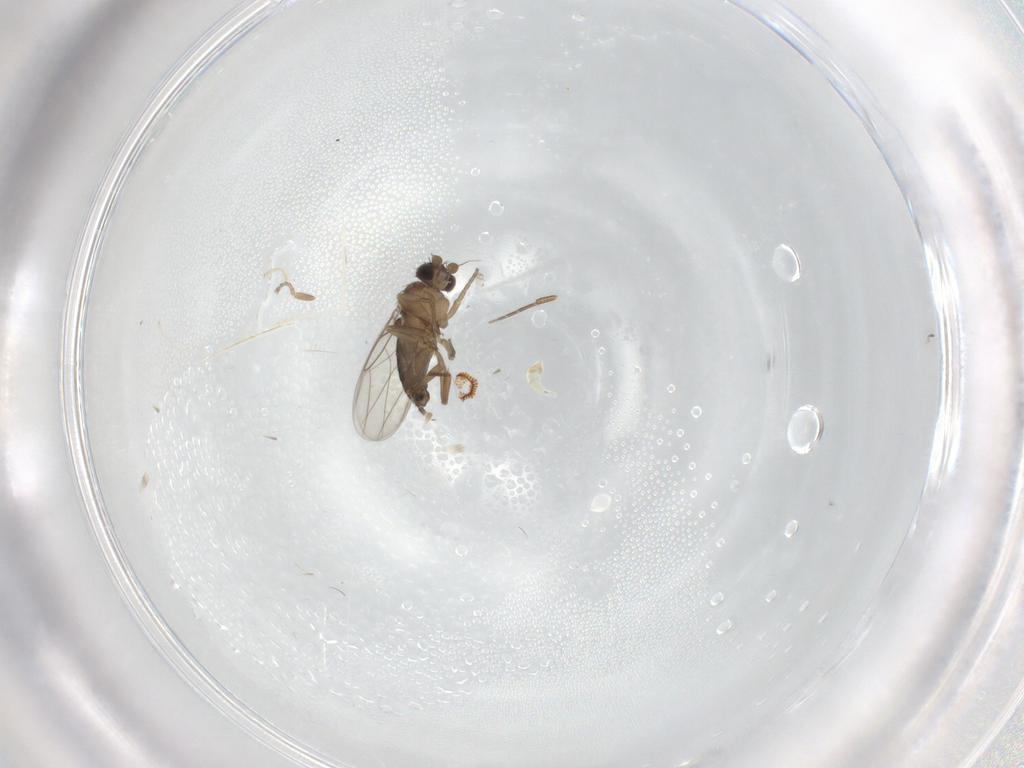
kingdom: Animalia
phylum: Arthropoda
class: Insecta
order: Diptera
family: Cecidomyiidae
